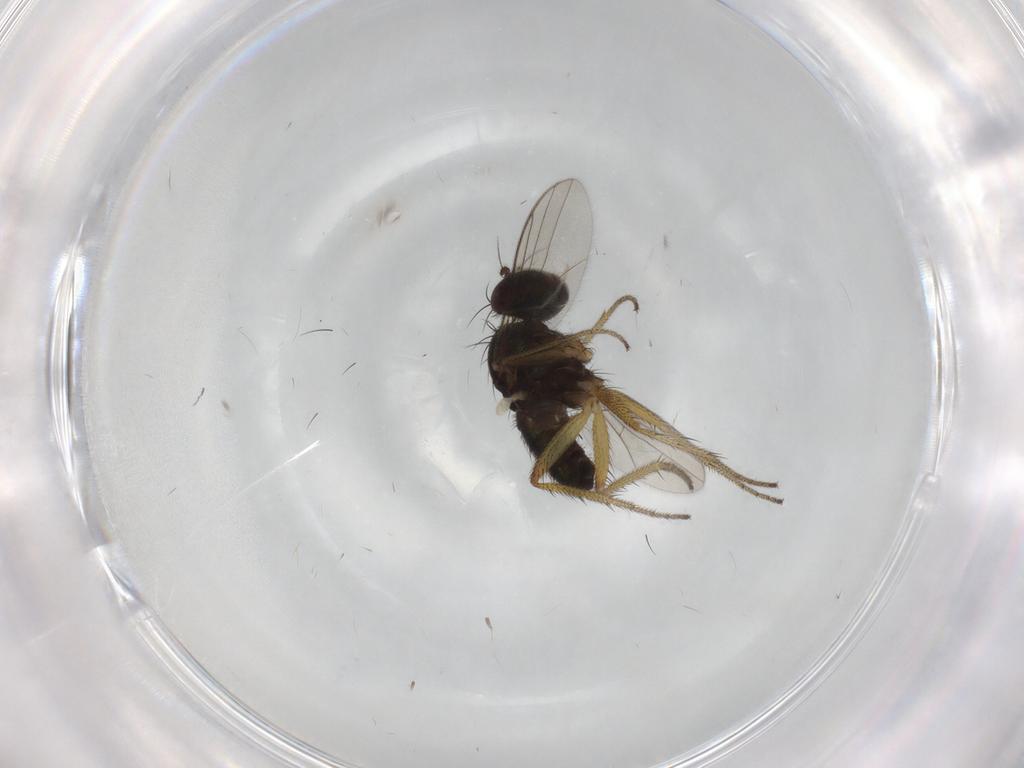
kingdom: Animalia
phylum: Arthropoda
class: Insecta
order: Diptera
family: Chironomidae
